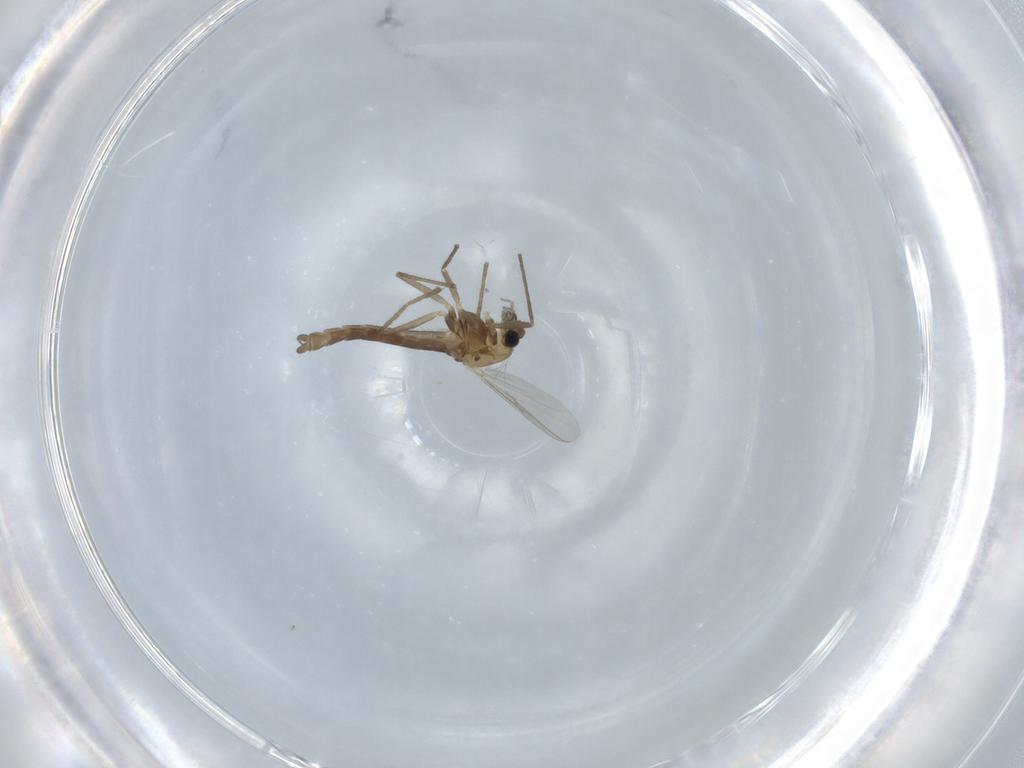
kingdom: Animalia
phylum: Arthropoda
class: Insecta
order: Diptera
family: Chironomidae
